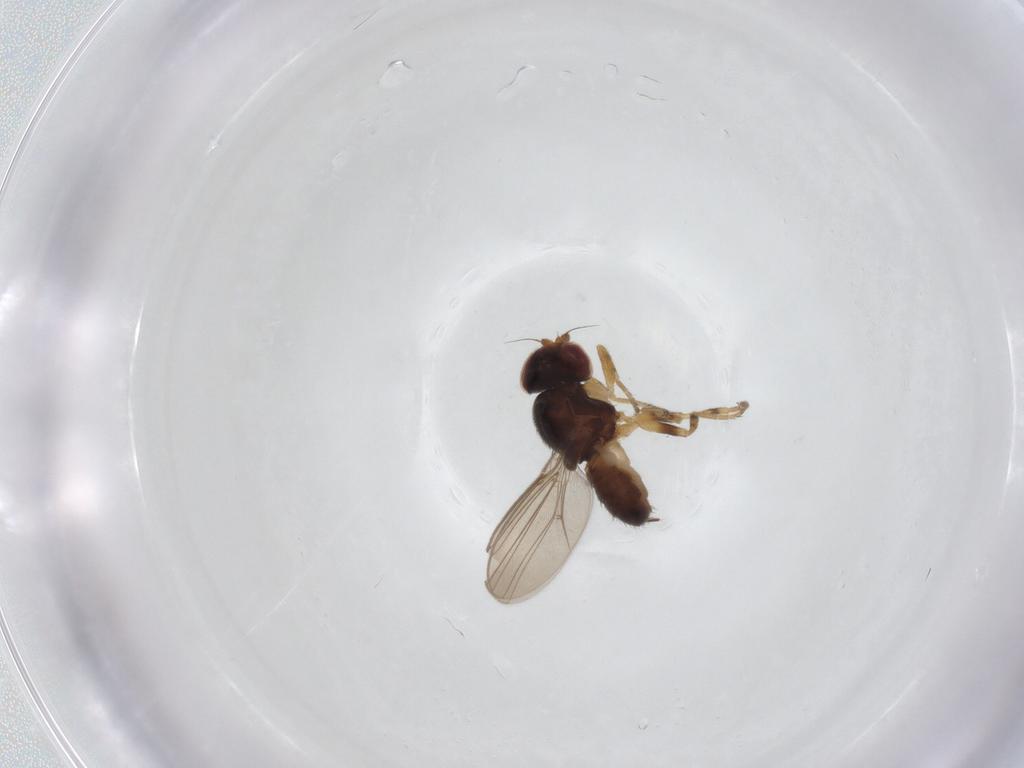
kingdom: Animalia
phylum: Arthropoda
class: Insecta
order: Diptera
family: Chloropidae
